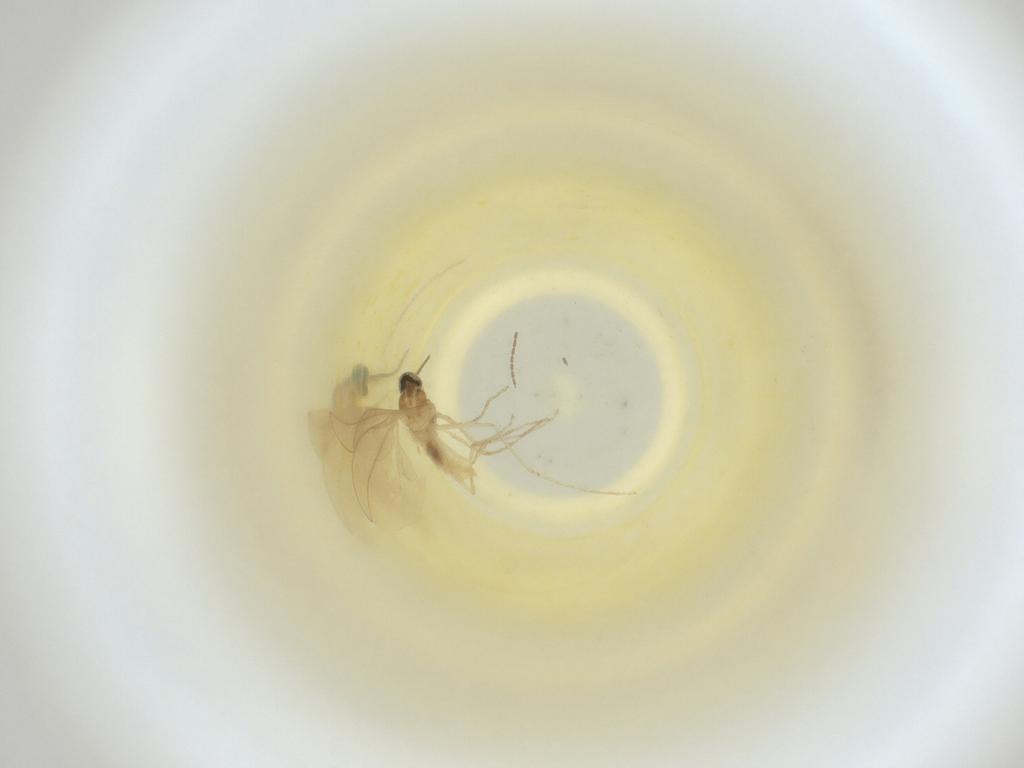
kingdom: Animalia
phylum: Arthropoda
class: Insecta
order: Diptera
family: Cecidomyiidae
